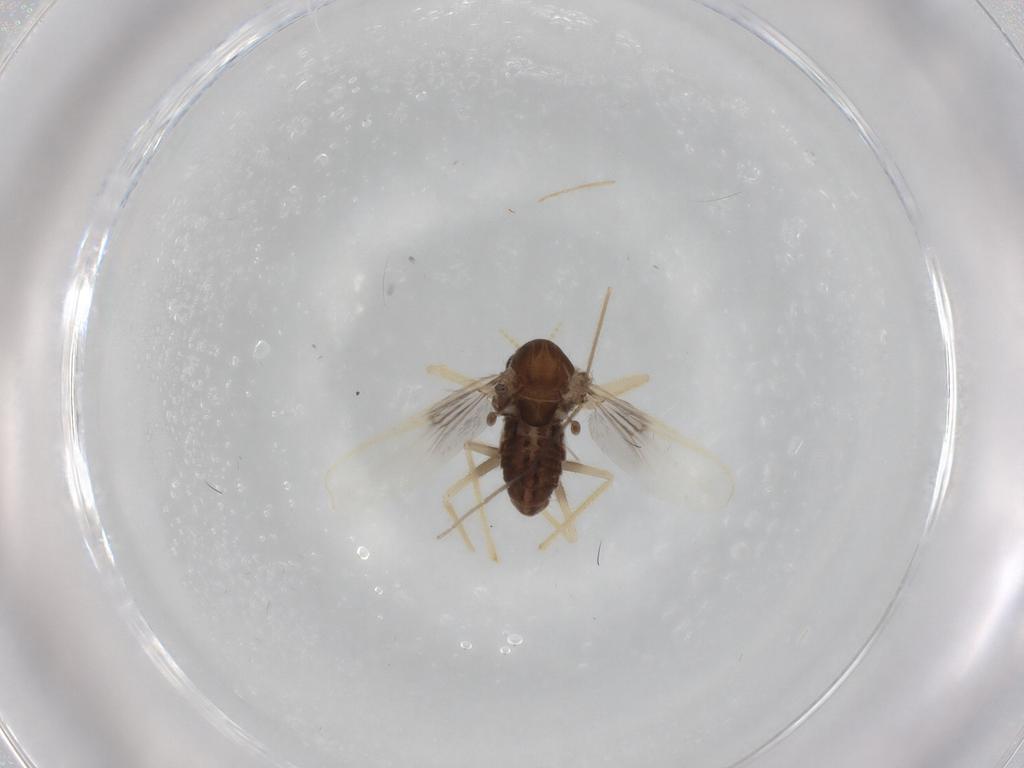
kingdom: Animalia
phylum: Arthropoda
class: Insecta
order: Diptera
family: Chironomidae
